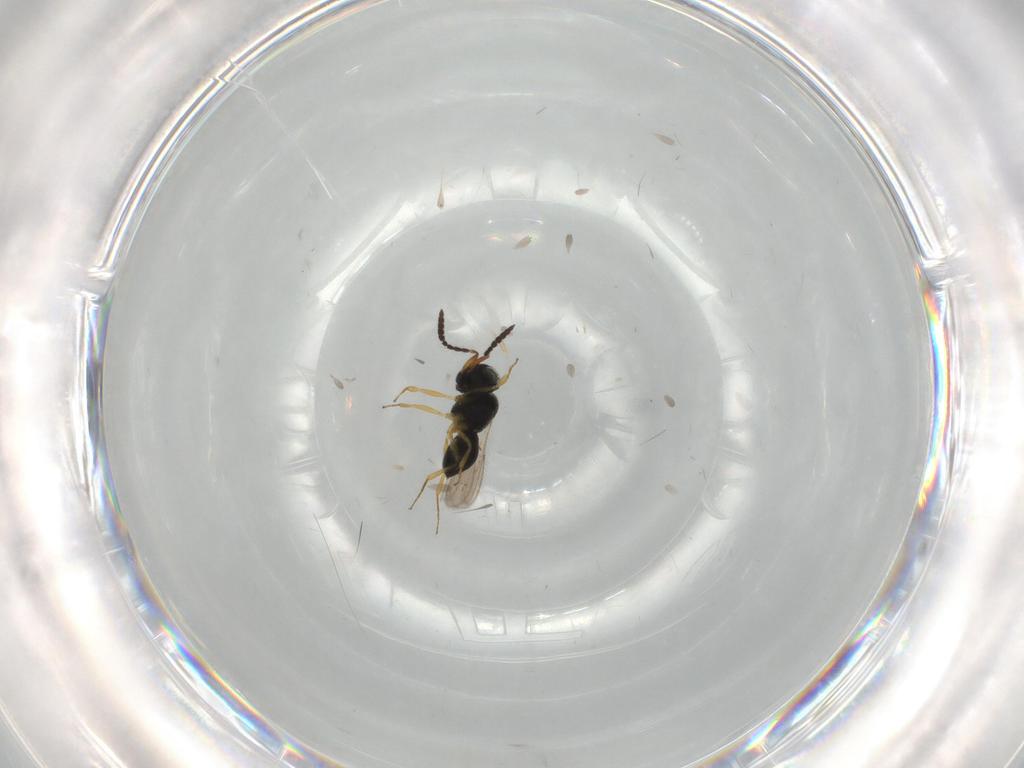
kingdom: Animalia
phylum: Arthropoda
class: Insecta
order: Hymenoptera
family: Scelionidae
